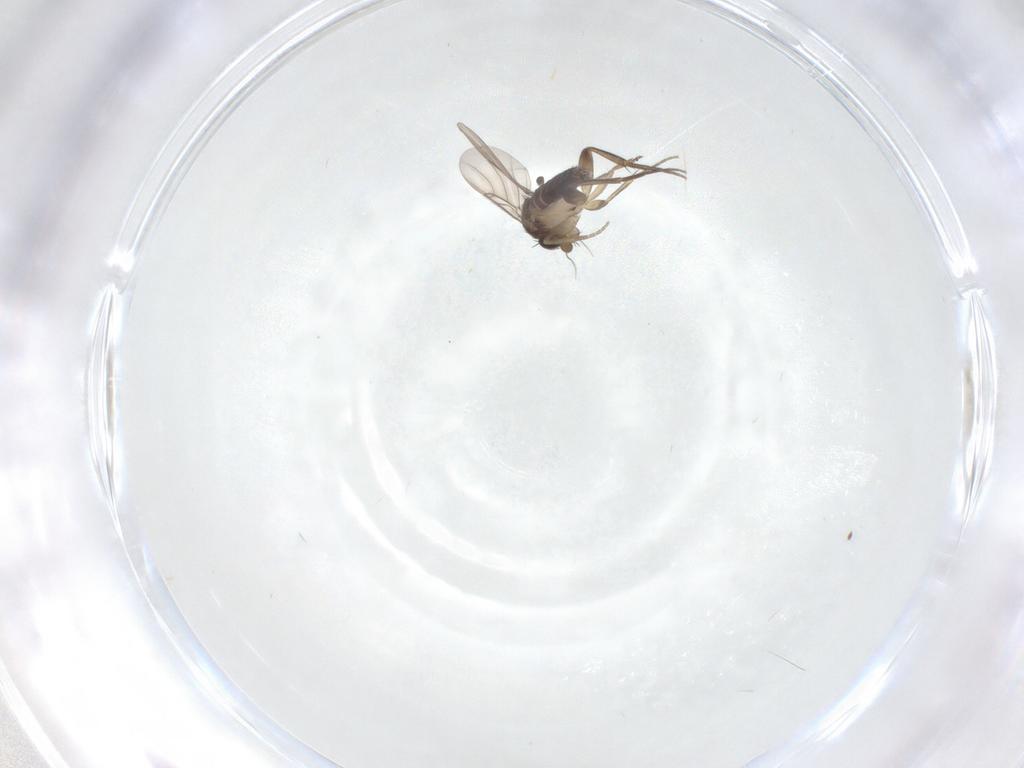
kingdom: Animalia
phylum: Arthropoda
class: Insecta
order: Diptera
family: Phoridae
